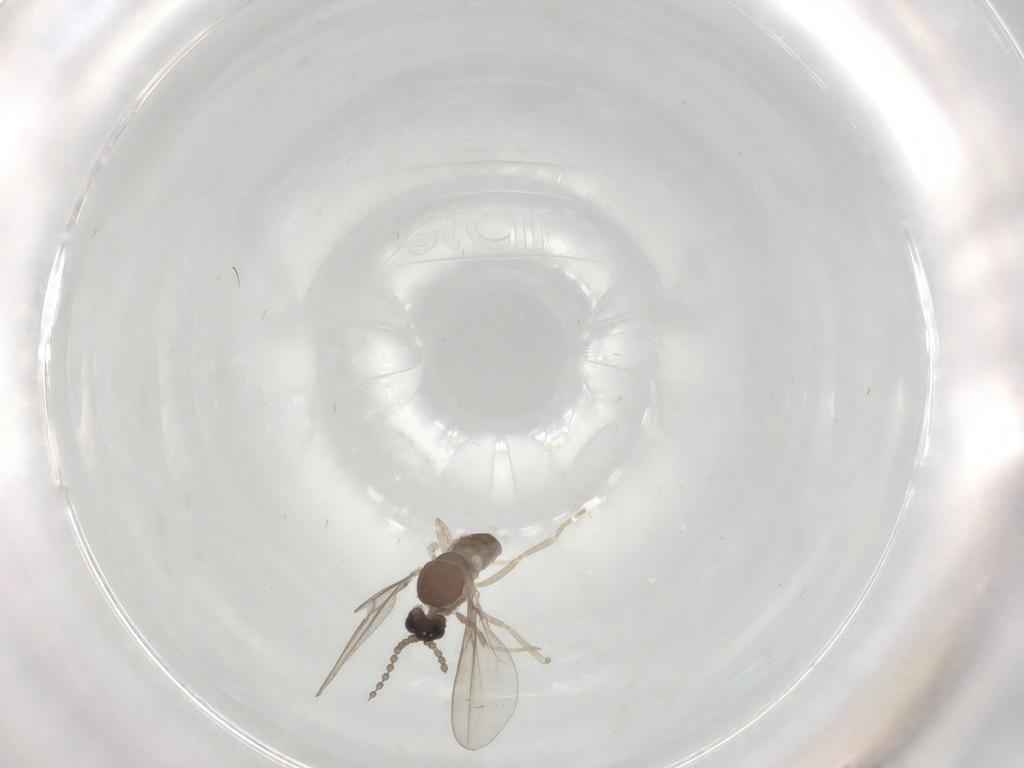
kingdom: Animalia
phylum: Arthropoda
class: Insecta
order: Diptera
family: Cecidomyiidae
